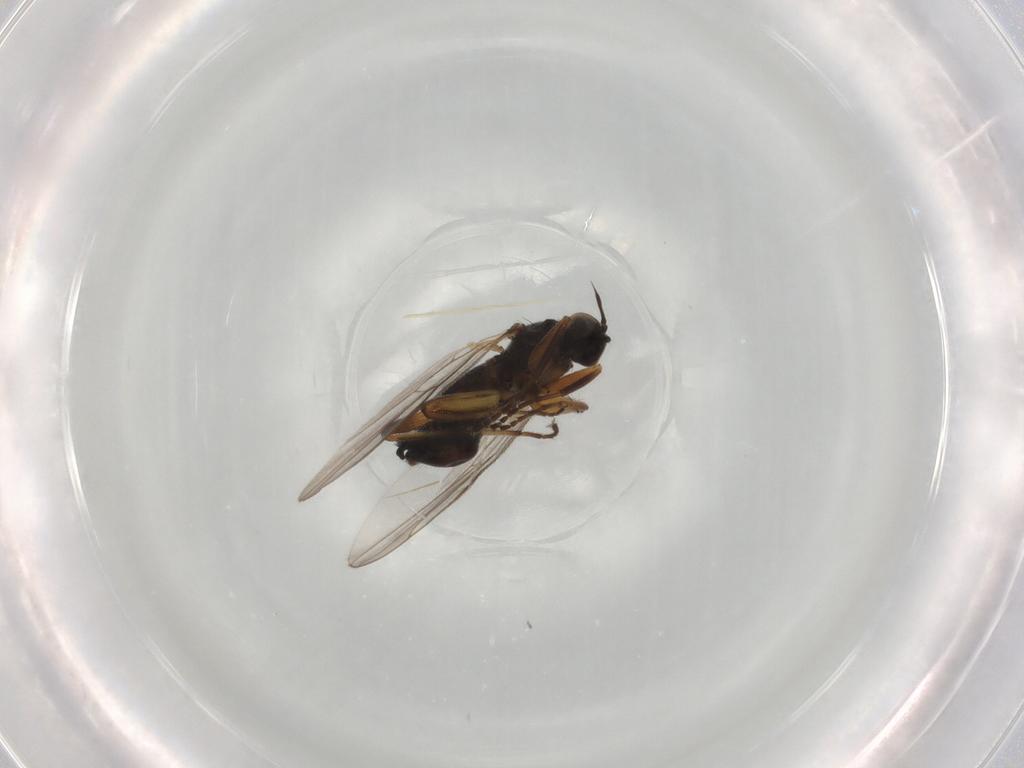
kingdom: Animalia
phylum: Arthropoda
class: Insecta
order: Diptera
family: Hybotidae
